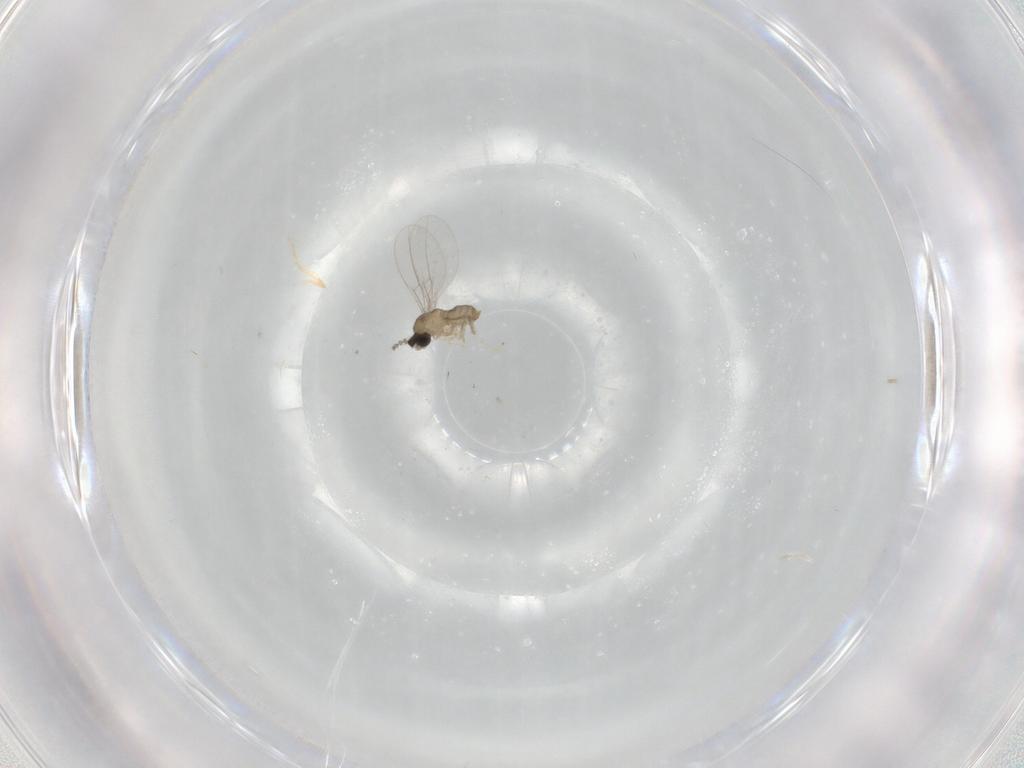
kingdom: Animalia
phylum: Arthropoda
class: Insecta
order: Diptera
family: Cecidomyiidae
